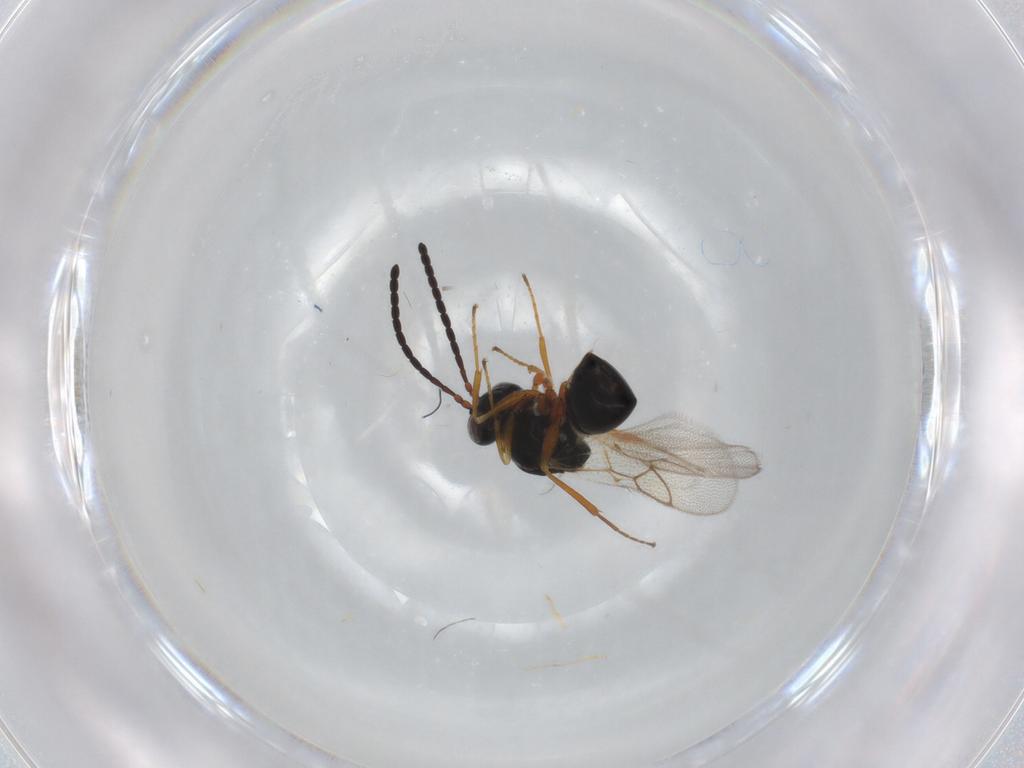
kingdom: Animalia
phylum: Arthropoda
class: Insecta
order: Hymenoptera
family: Figitidae
